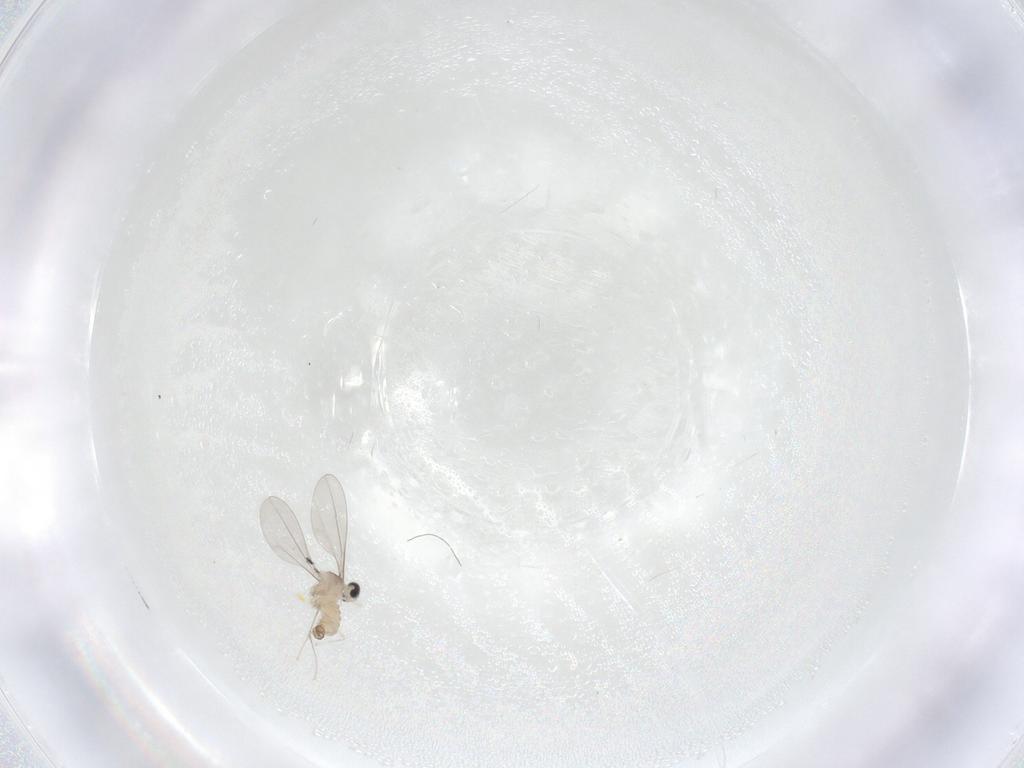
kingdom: Animalia
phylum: Arthropoda
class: Insecta
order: Diptera
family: Cecidomyiidae
